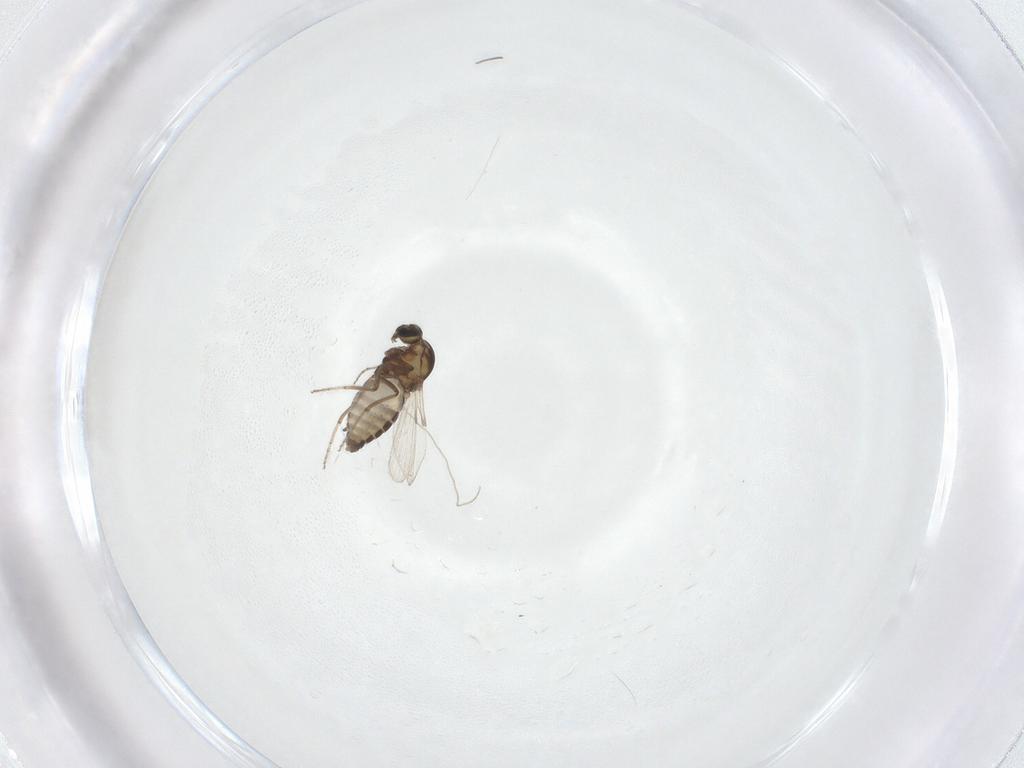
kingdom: Animalia
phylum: Arthropoda
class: Insecta
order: Diptera
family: Ceratopogonidae
